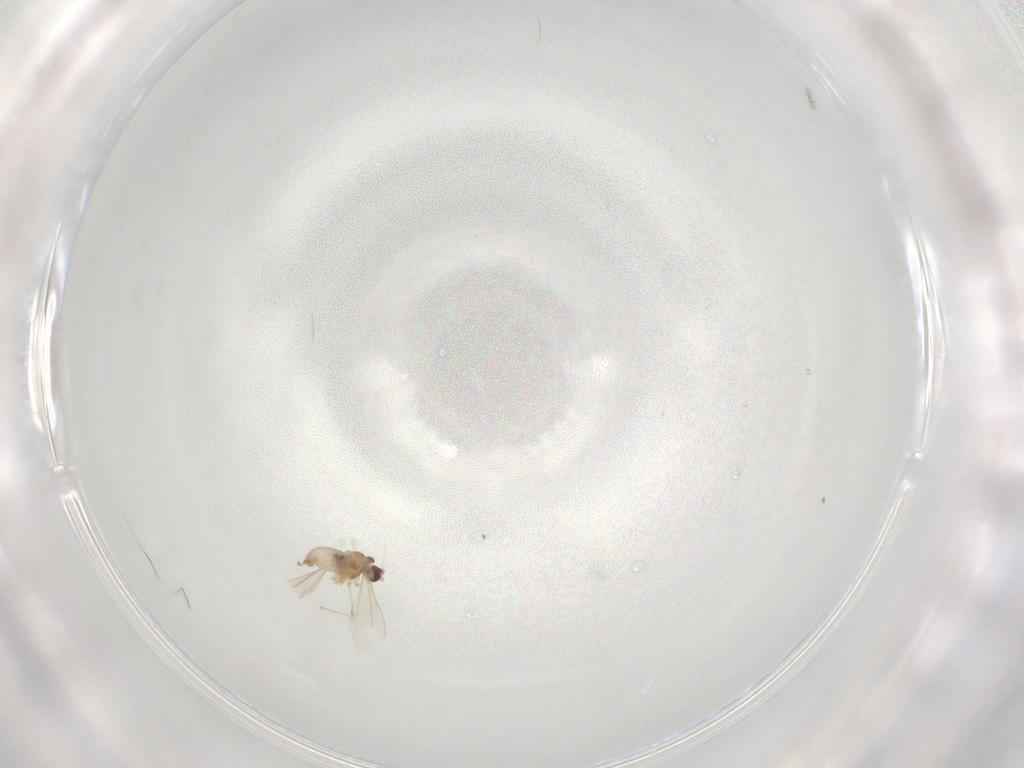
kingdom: Animalia
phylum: Arthropoda
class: Insecta
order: Diptera
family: Cecidomyiidae
